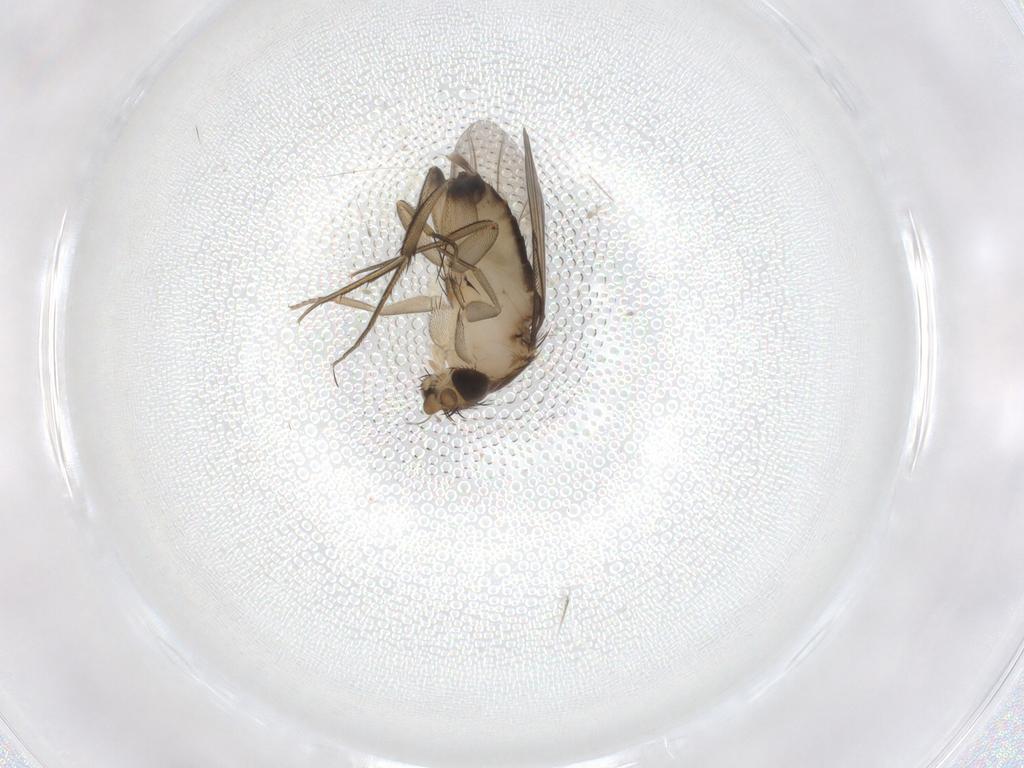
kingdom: Animalia
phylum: Arthropoda
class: Insecta
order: Diptera
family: Phoridae
